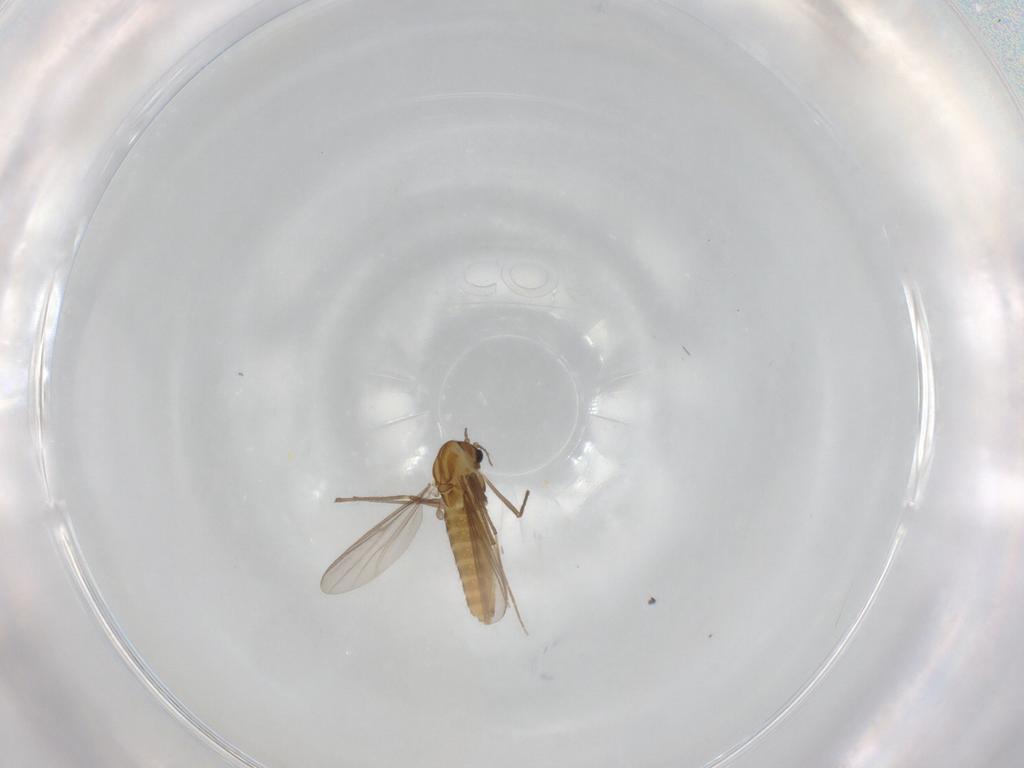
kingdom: Animalia
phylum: Arthropoda
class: Insecta
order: Diptera
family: Chironomidae
